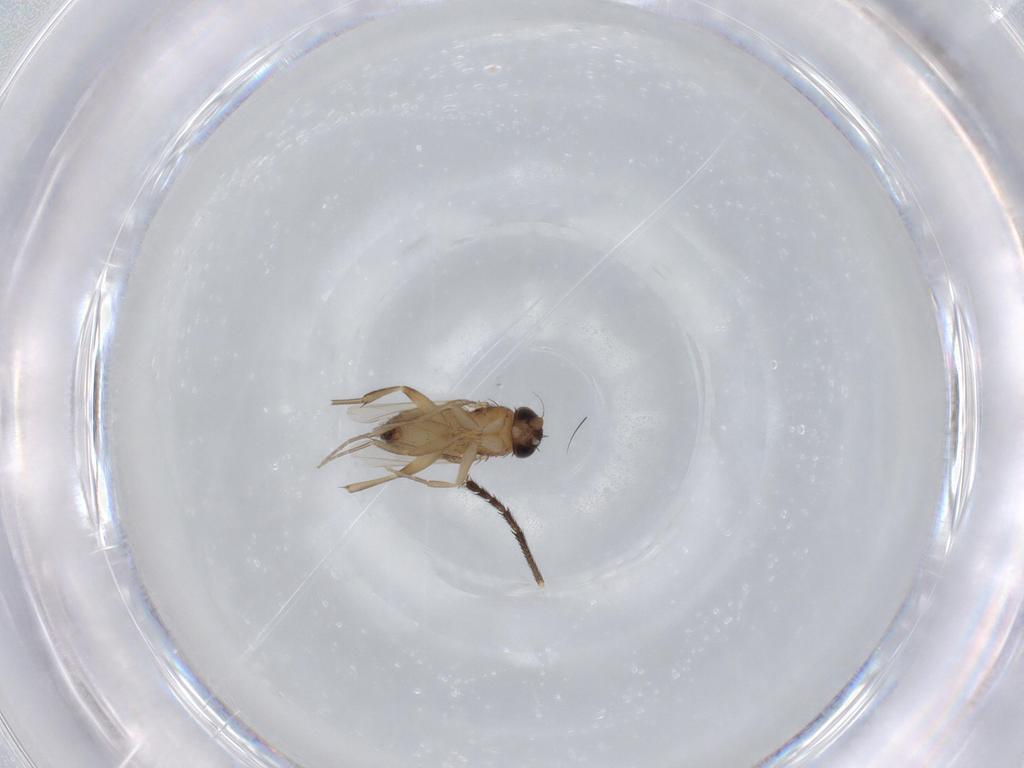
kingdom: Animalia
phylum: Arthropoda
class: Insecta
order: Diptera
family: Phoridae
